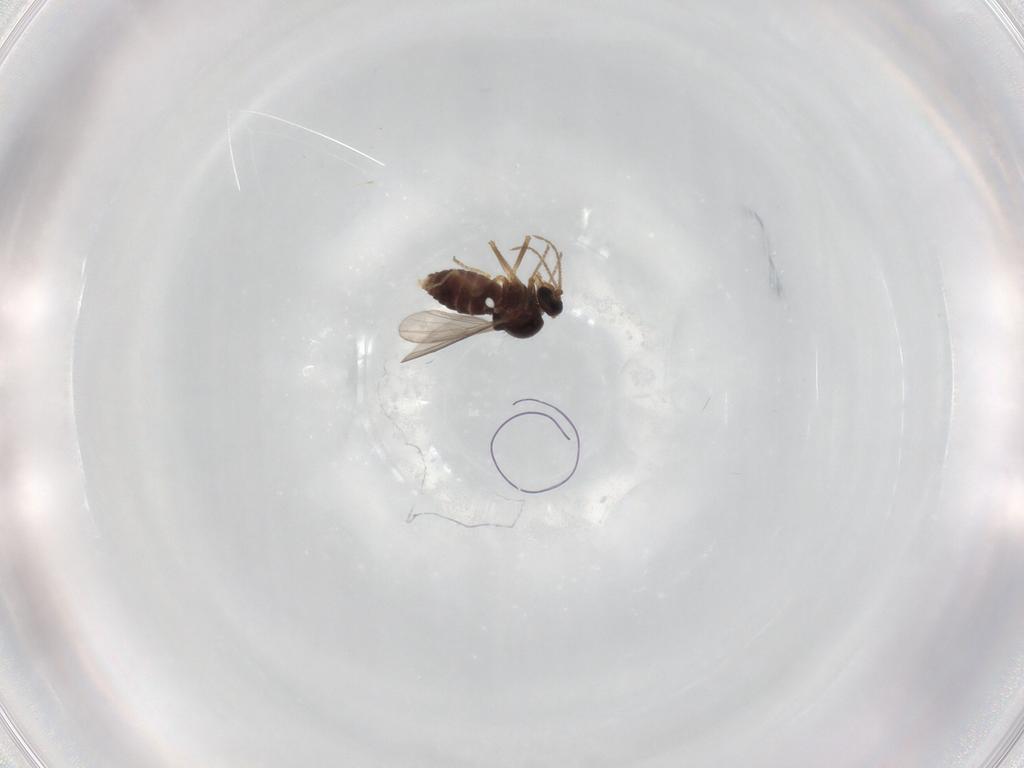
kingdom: Animalia
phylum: Arthropoda
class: Insecta
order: Diptera
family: Ceratopogonidae
